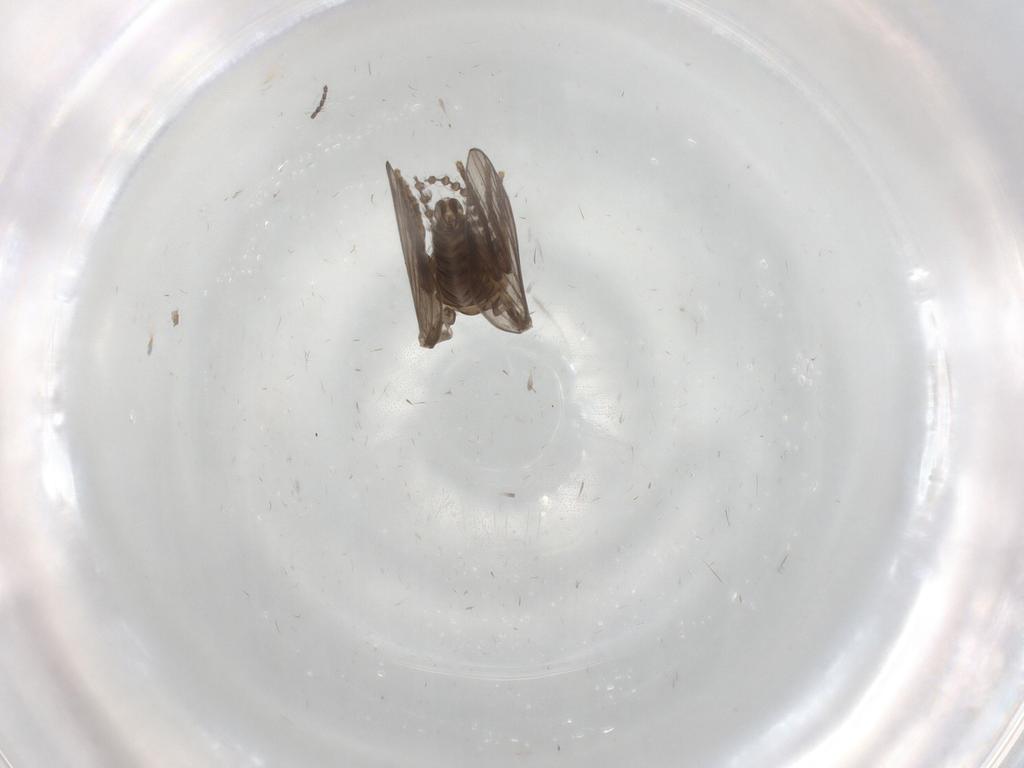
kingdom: Animalia
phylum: Arthropoda
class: Insecta
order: Diptera
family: Psychodidae
